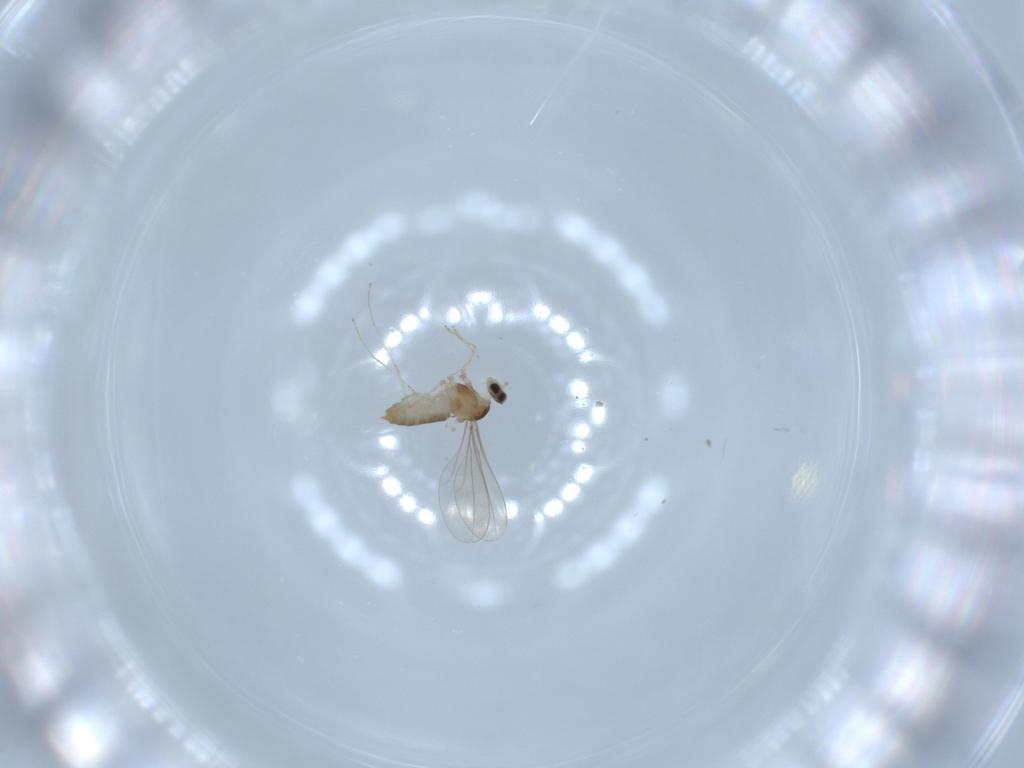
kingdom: Animalia
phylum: Arthropoda
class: Insecta
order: Diptera
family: Cecidomyiidae
